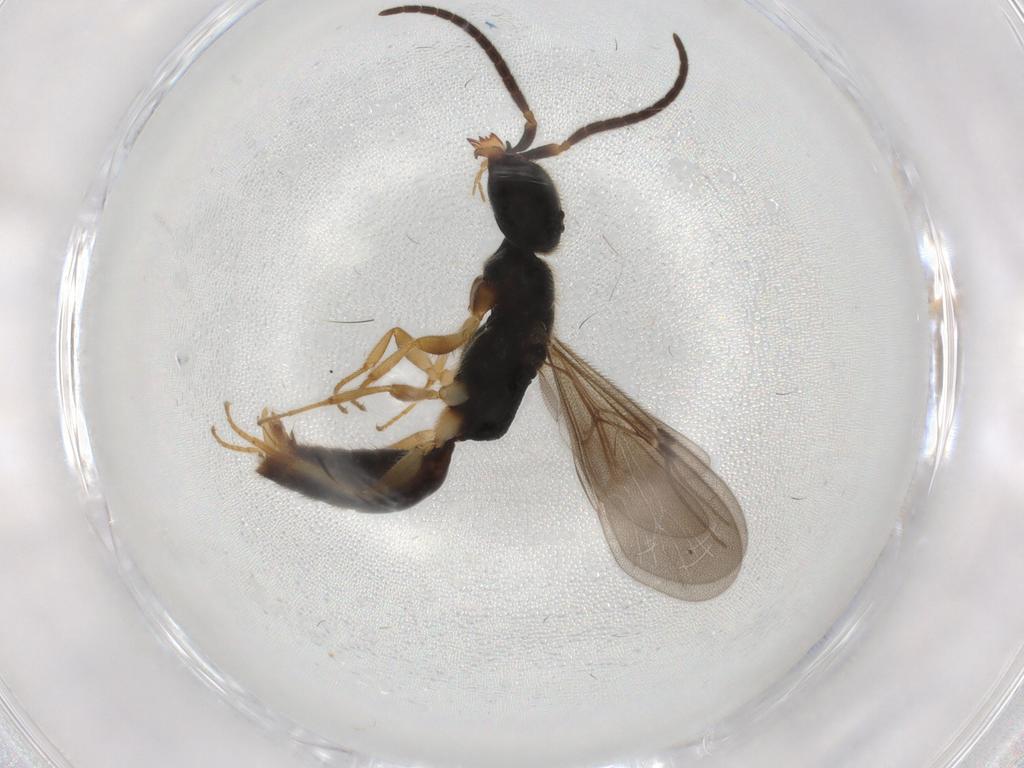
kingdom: Animalia
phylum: Arthropoda
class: Insecta
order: Hymenoptera
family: Bethylidae
